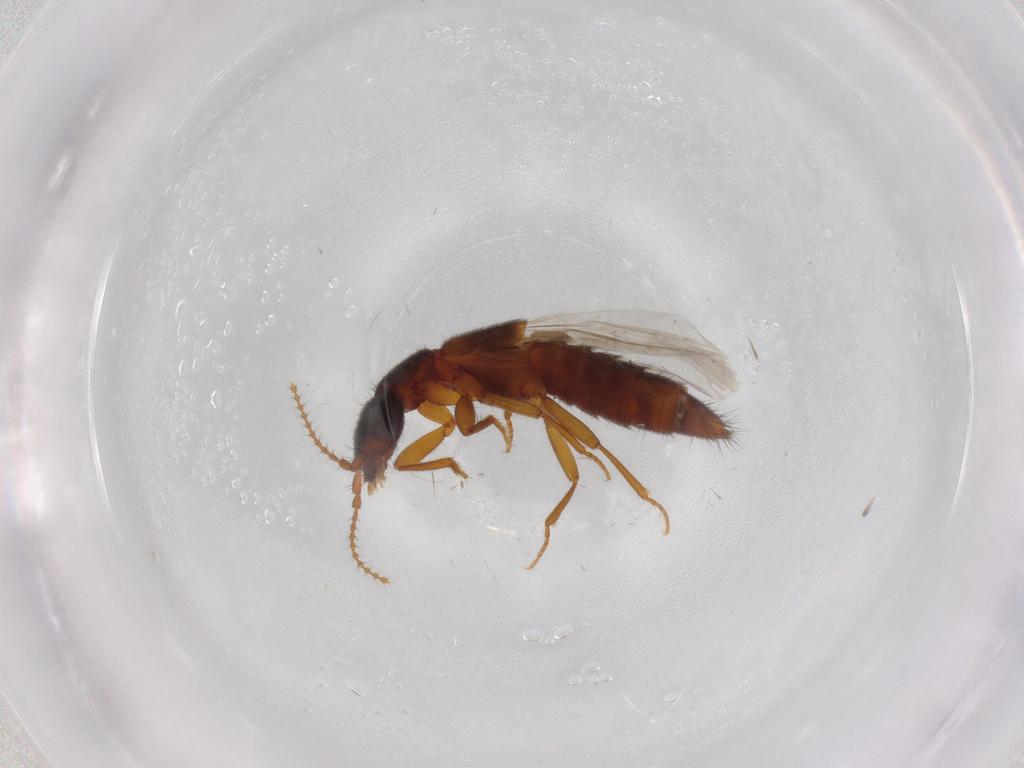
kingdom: Animalia
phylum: Arthropoda
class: Insecta
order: Coleoptera
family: Staphylinidae
